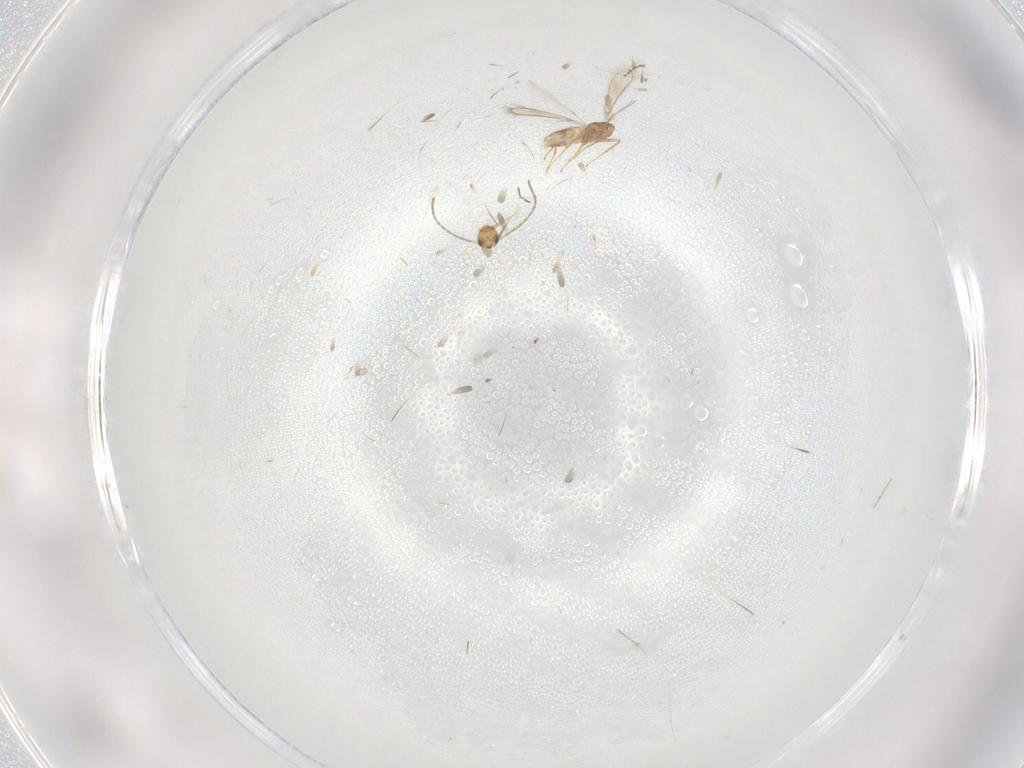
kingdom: Animalia
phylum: Arthropoda
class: Insecta
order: Diptera
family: Cecidomyiidae
